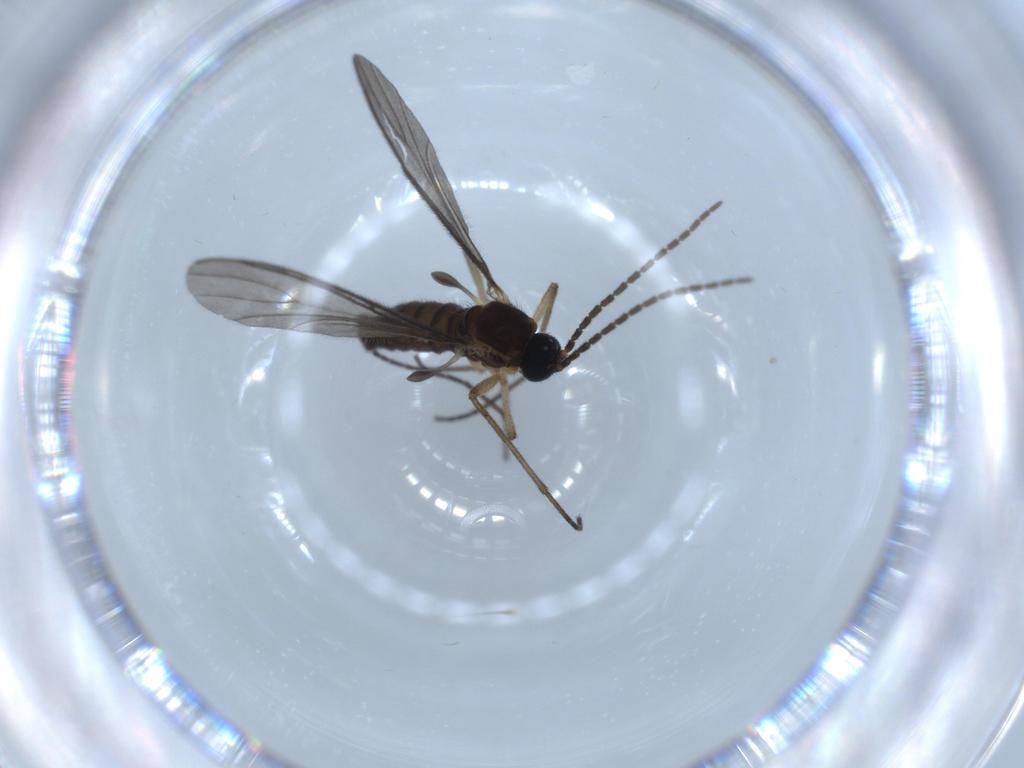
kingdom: Animalia
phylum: Arthropoda
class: Insecta
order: Diptera
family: Sciaridae
